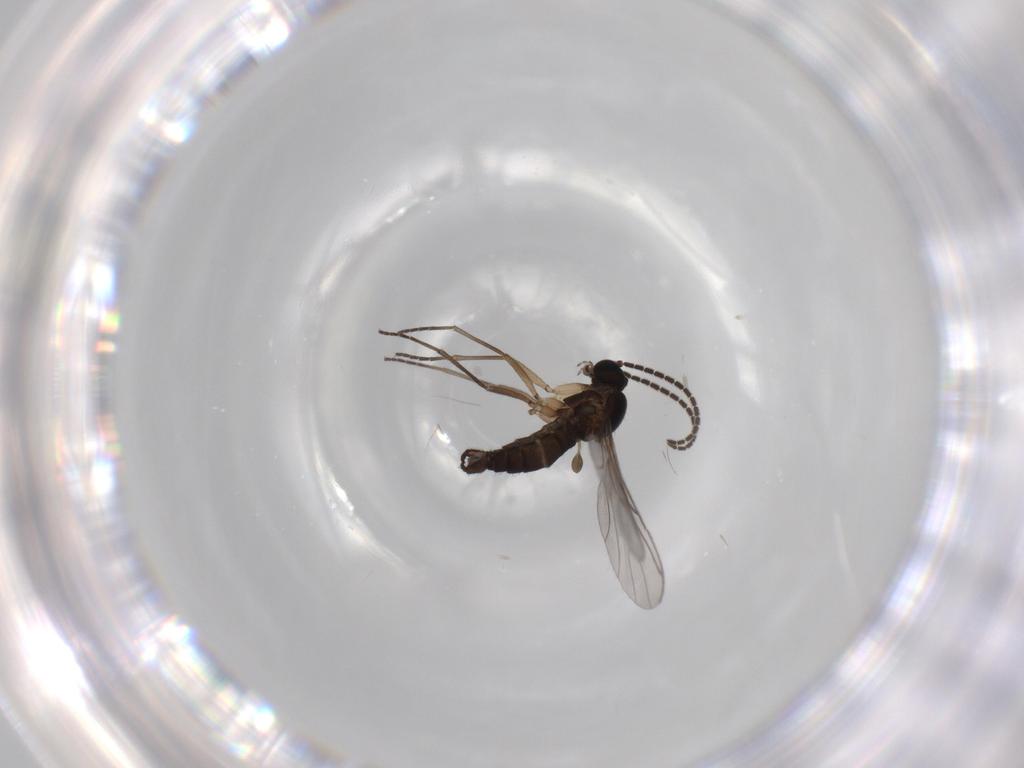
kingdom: Animalia
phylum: Arthropoda
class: Insecta
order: Diptera
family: Sciaridae
